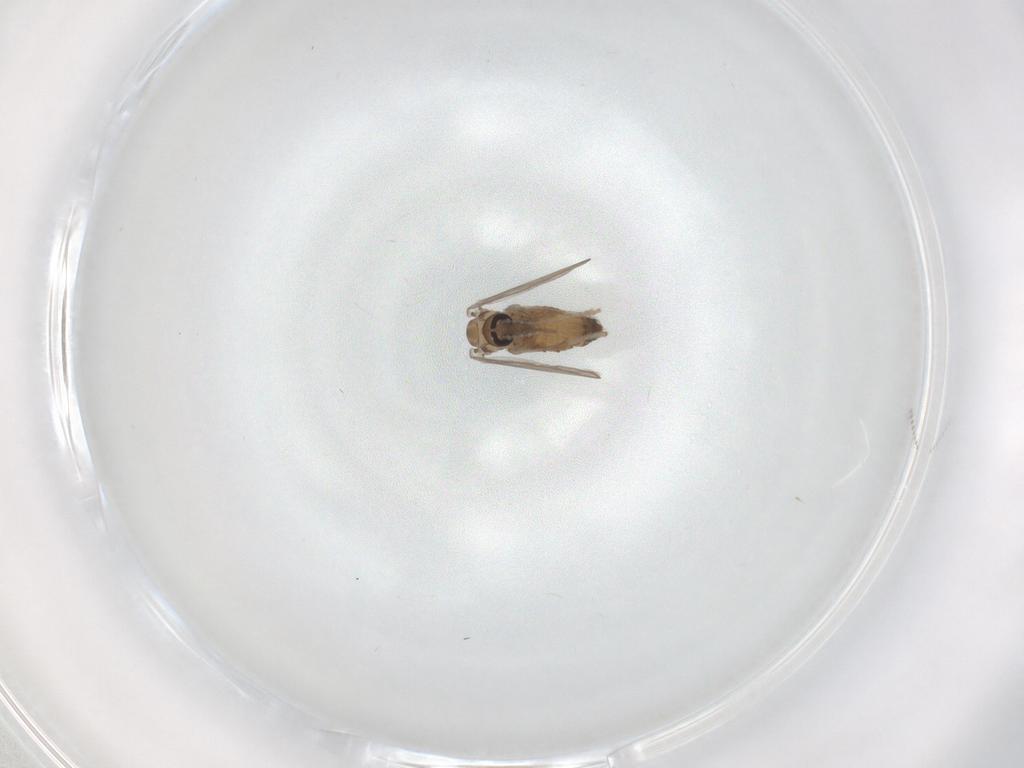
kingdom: Animalia
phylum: Arthropoda
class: Insecta
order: Diptera
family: Psychodidae
